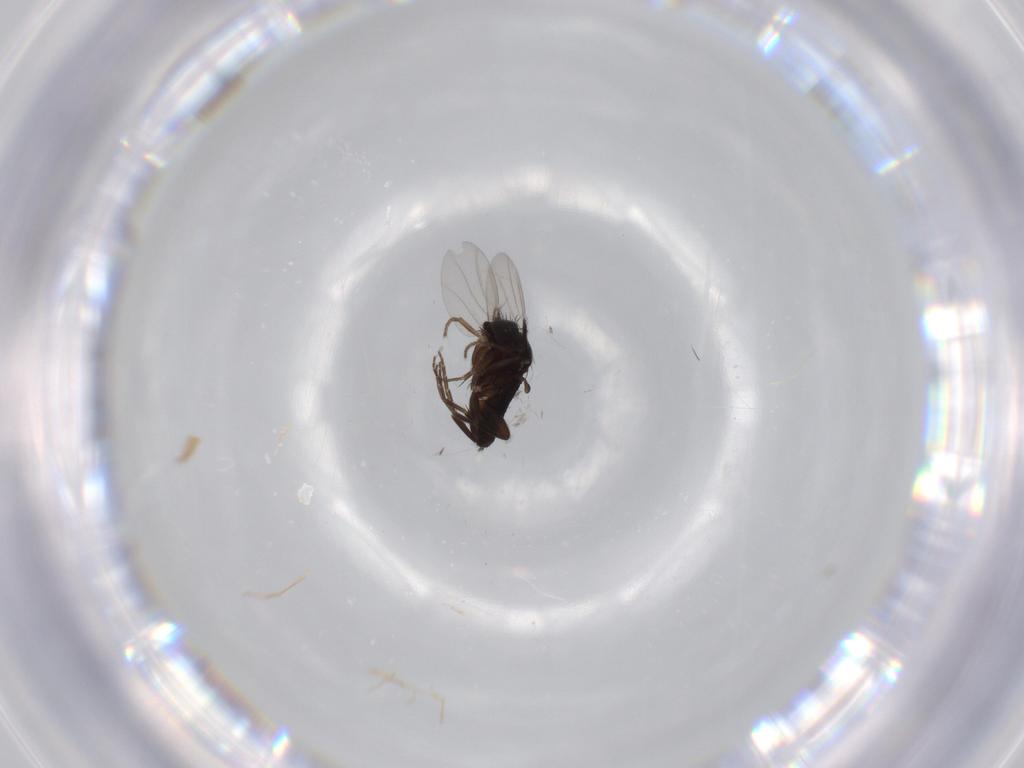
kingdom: Animalia
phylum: Arthropoda
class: Insecta
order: Diptera
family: Phoridae
